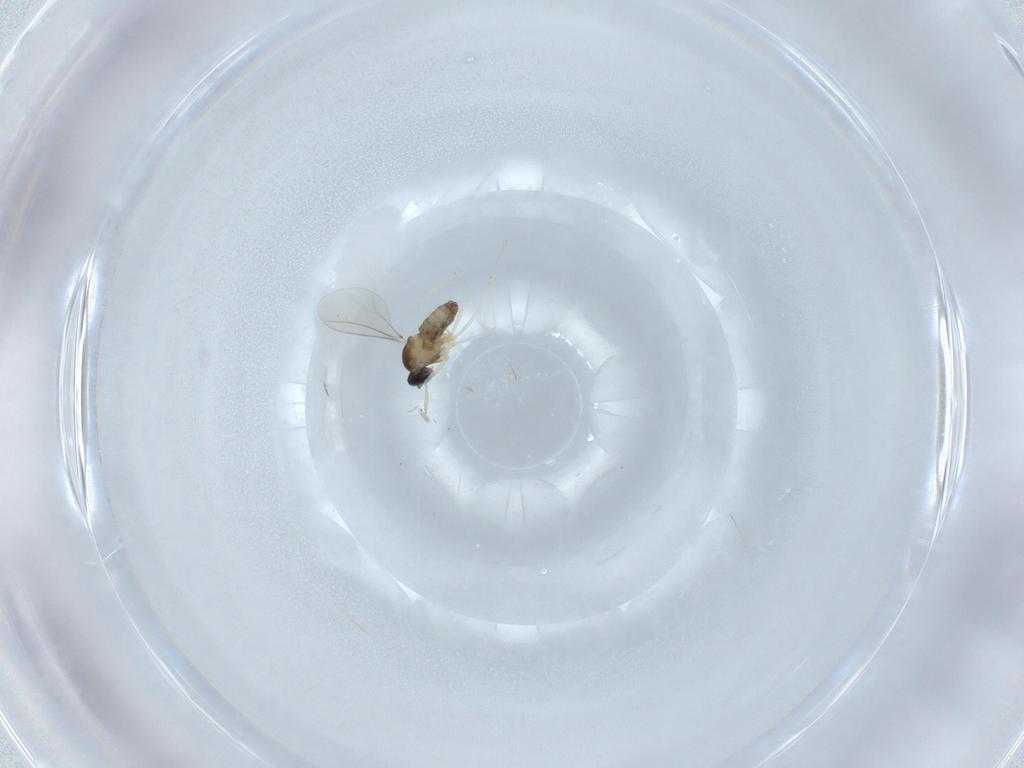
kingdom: Animalia
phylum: Arthropoda
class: Insecta
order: Diptera
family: Cecidomyiidae
